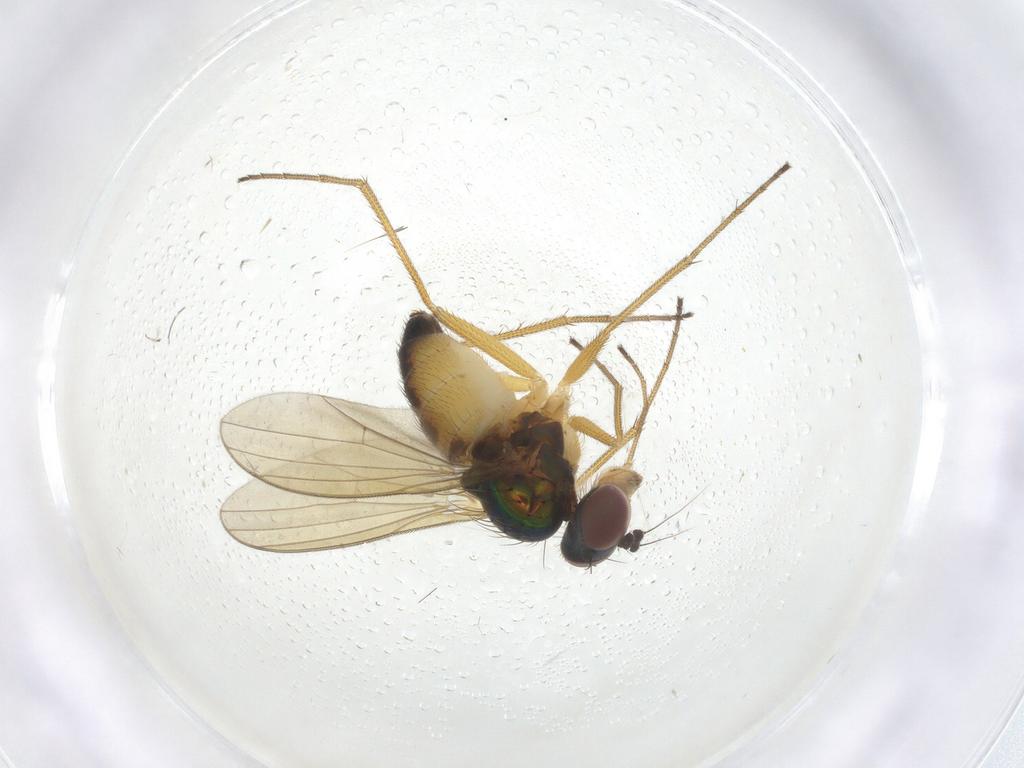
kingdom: Animalia
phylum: Arthropoda
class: Insecta
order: Diptera
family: Dolichopodidae
